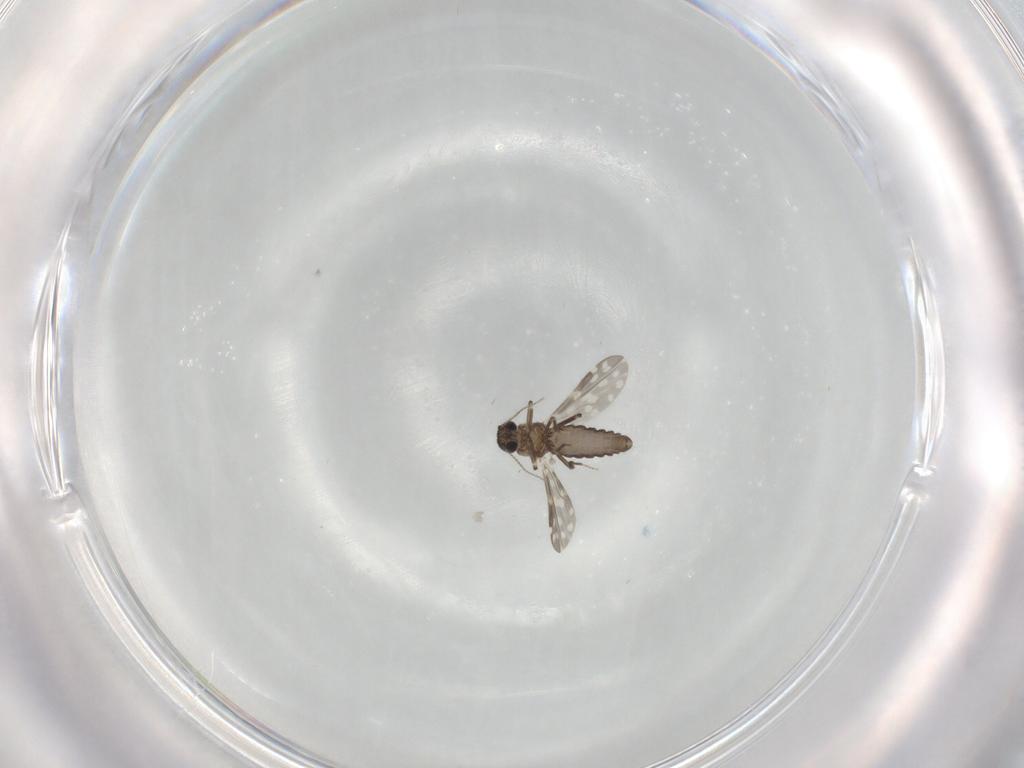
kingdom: Animalia
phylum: Arthropoda
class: Insecta
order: Diptera
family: Ceratopogonidae
